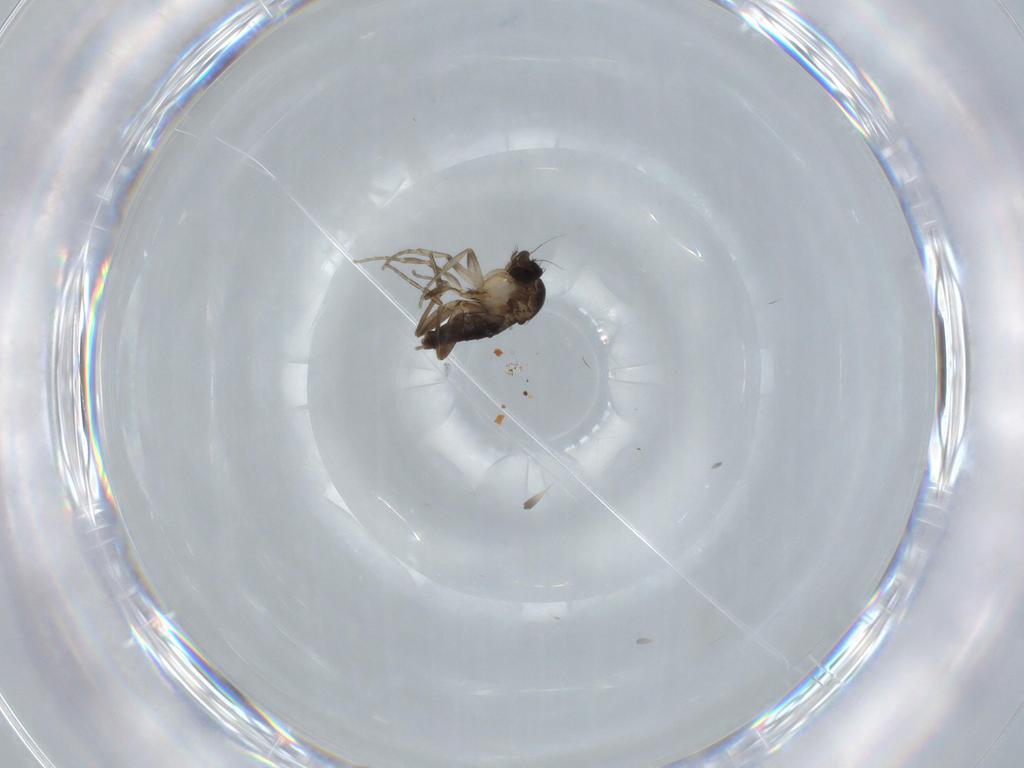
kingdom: Animalia
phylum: Arthropoda
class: Insecta
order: Diptera
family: Phoridae
